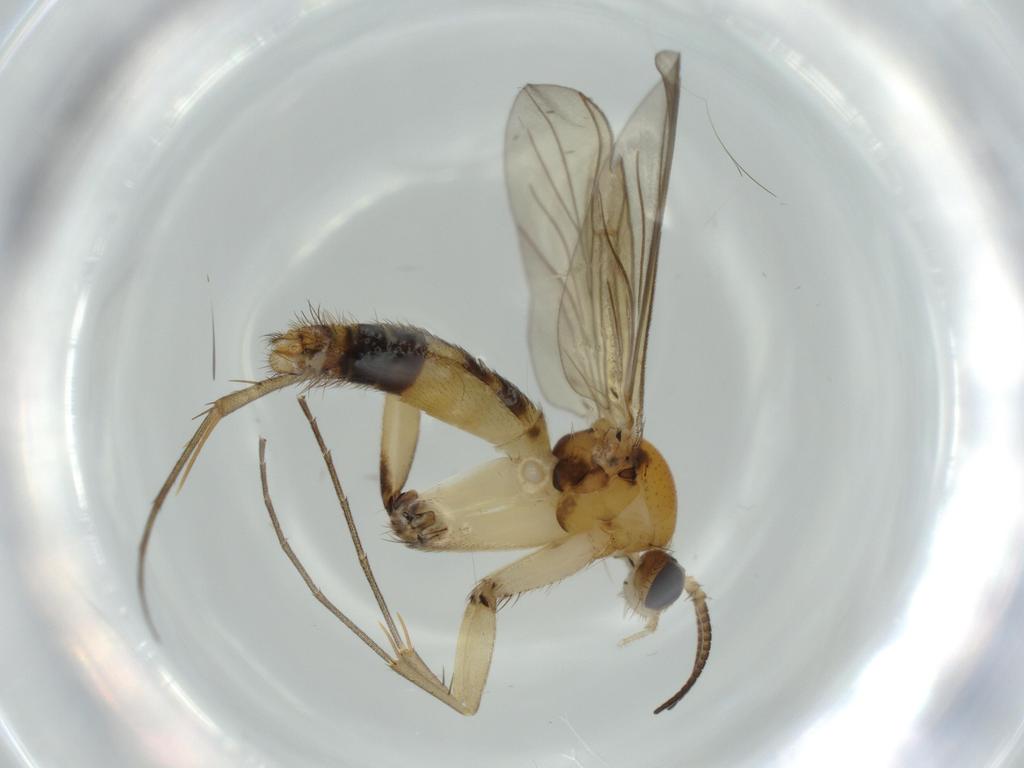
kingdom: Animalia
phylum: Arthropoda
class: Insecta
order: Diptera
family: Mycetophilidae
